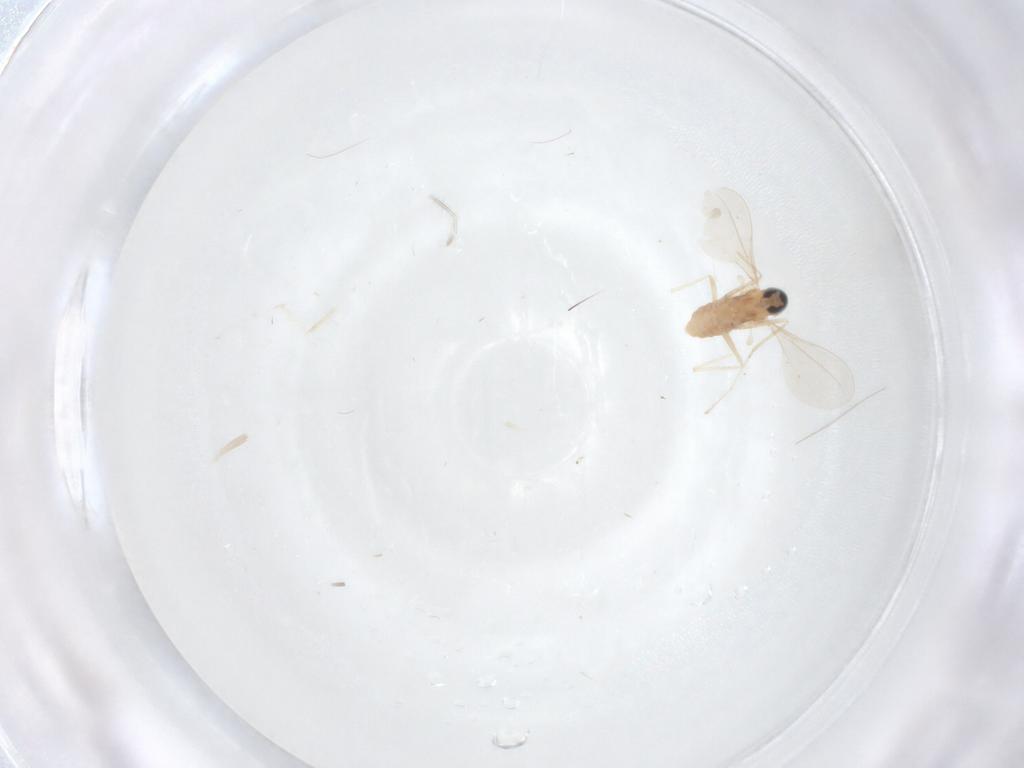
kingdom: Animalia
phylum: Arthropoda
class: Insecta
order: Diptera
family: Cecidomyiidae
